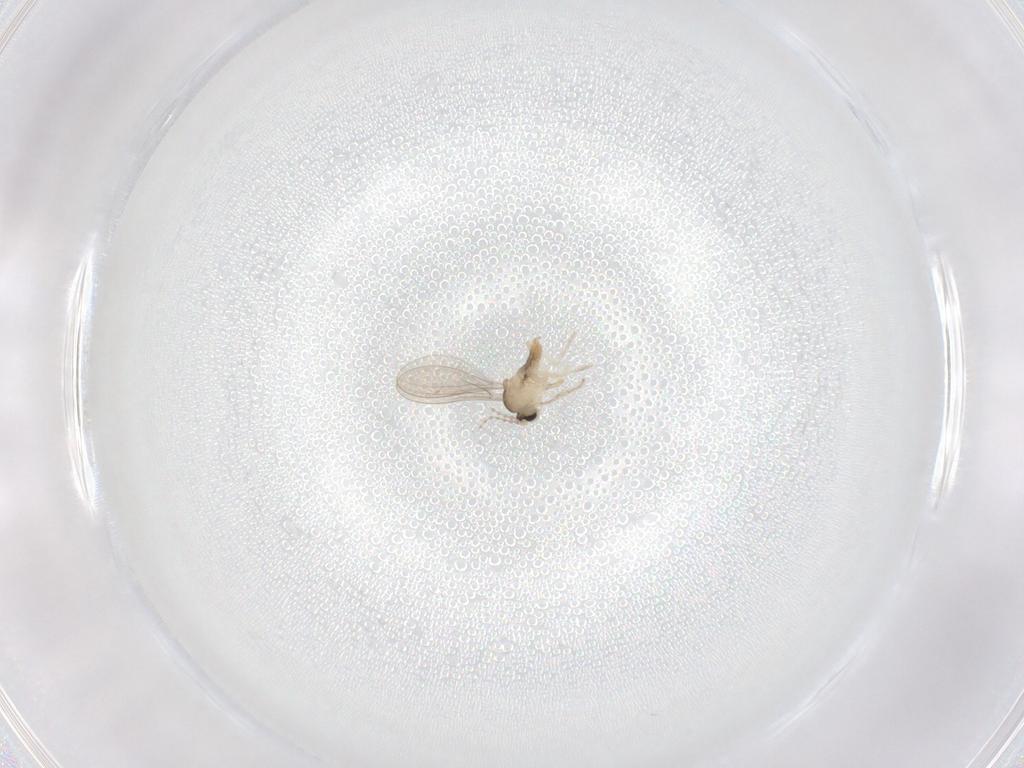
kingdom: Animalia
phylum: Arthropoda
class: Insecta
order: Diptera
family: Cecidomyiidae
